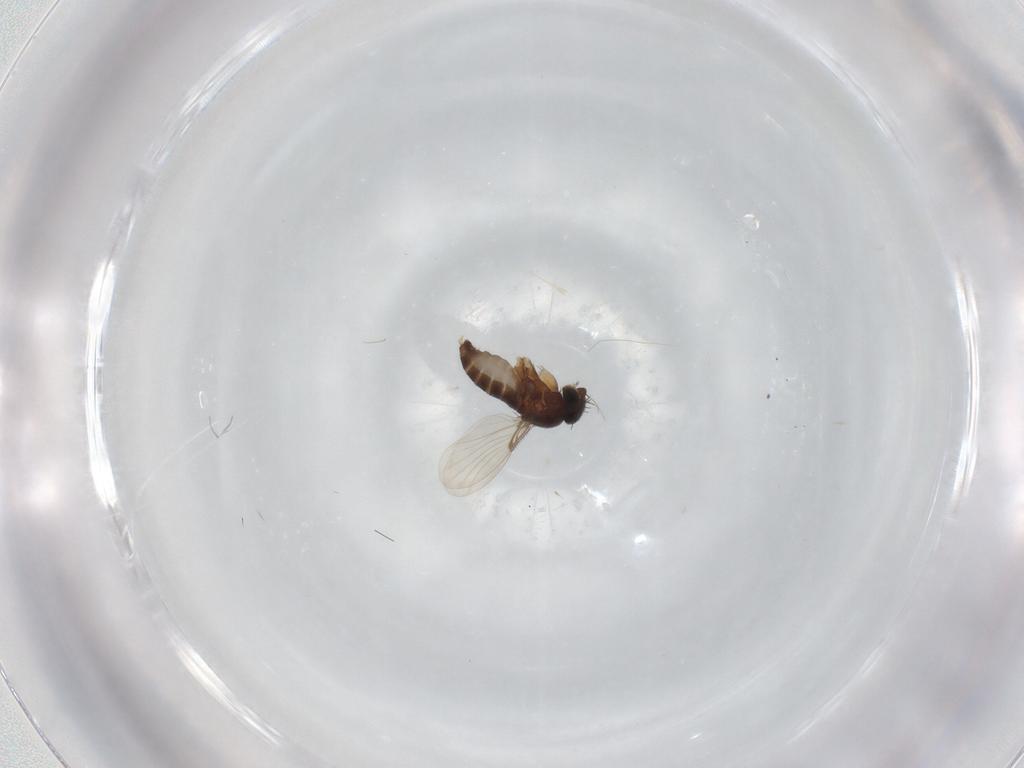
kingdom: Animalia
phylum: Arthropoda
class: Insecta
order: Diptera
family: Phoridae
